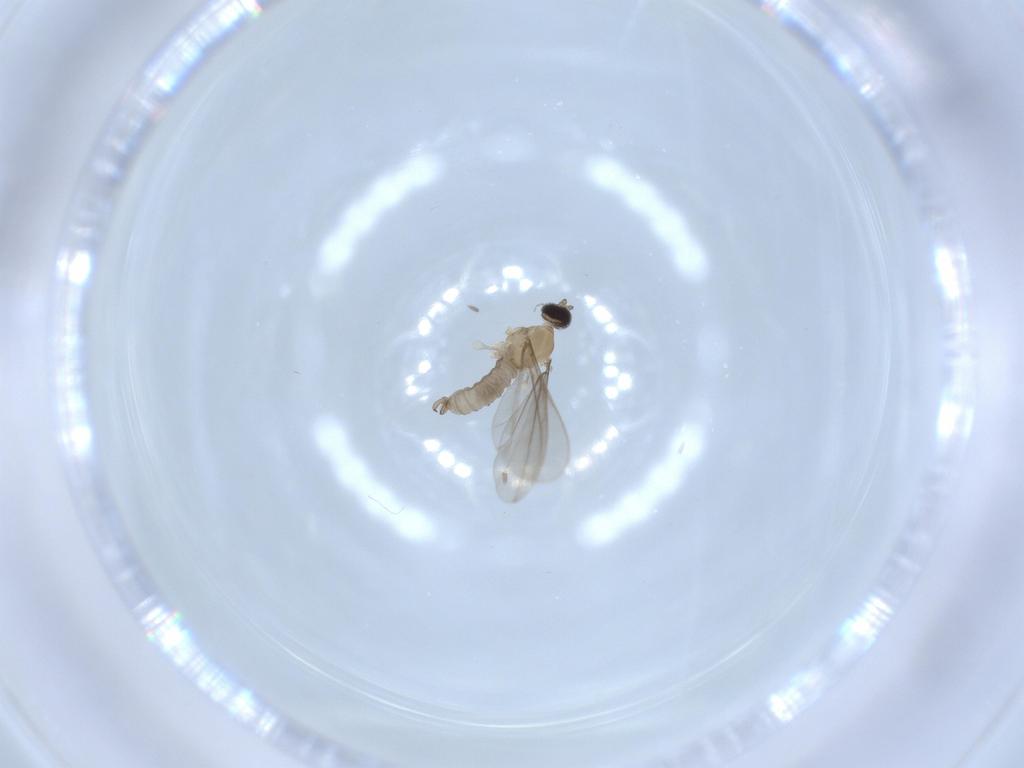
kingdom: Animalia
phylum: Arthropoda
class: Insecta
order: Diptera
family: Cecidomyiidae
